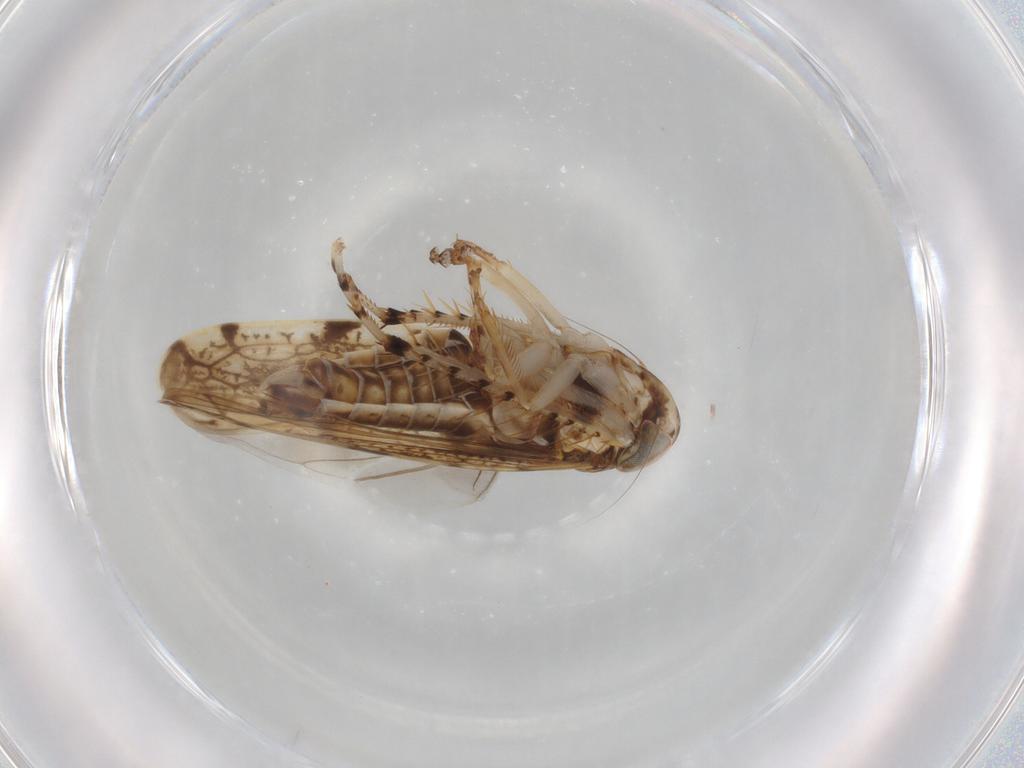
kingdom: Animalia
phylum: Arthropoda
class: Insecta
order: Hemiptera
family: Cicadellidae
